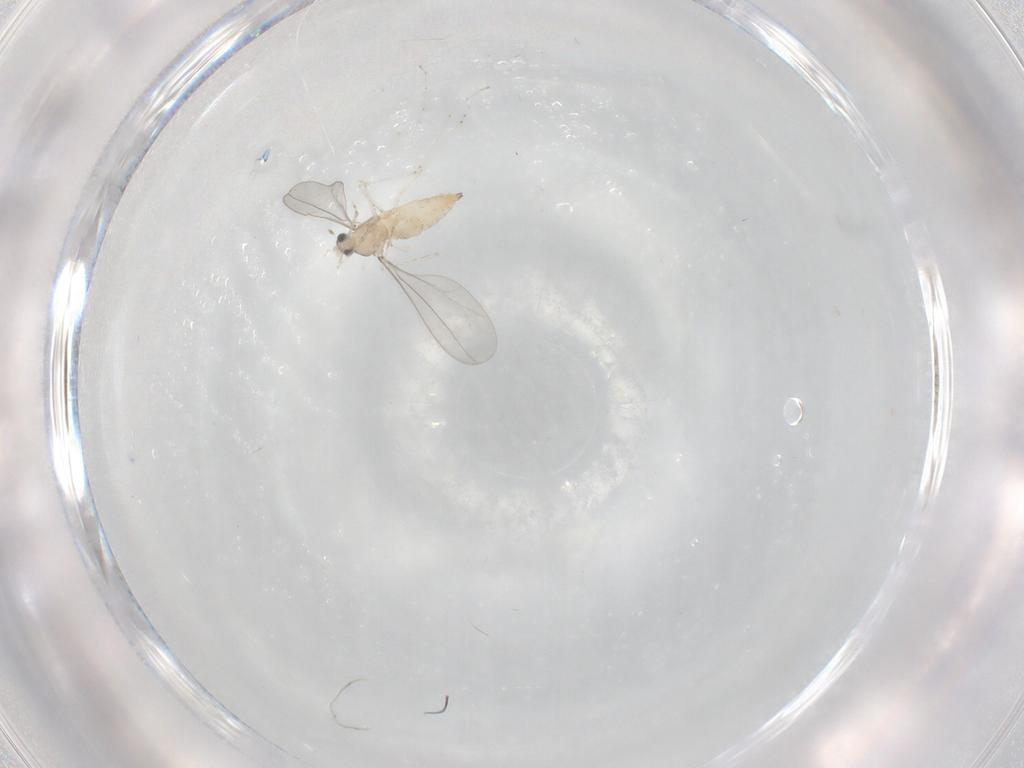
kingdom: Animalia
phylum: Arthropoda
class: Insecta
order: Diptera
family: Cecidomyiidae
